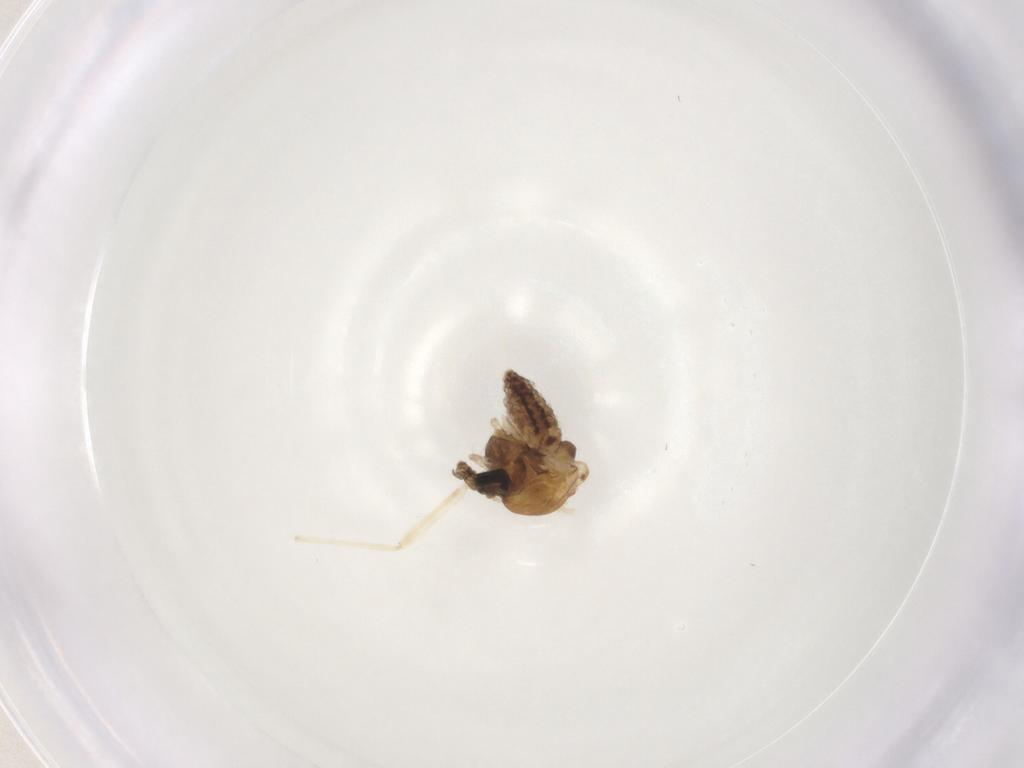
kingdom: Animalia
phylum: Arthropoda
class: Insecta
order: Diptera
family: Chironomidae
